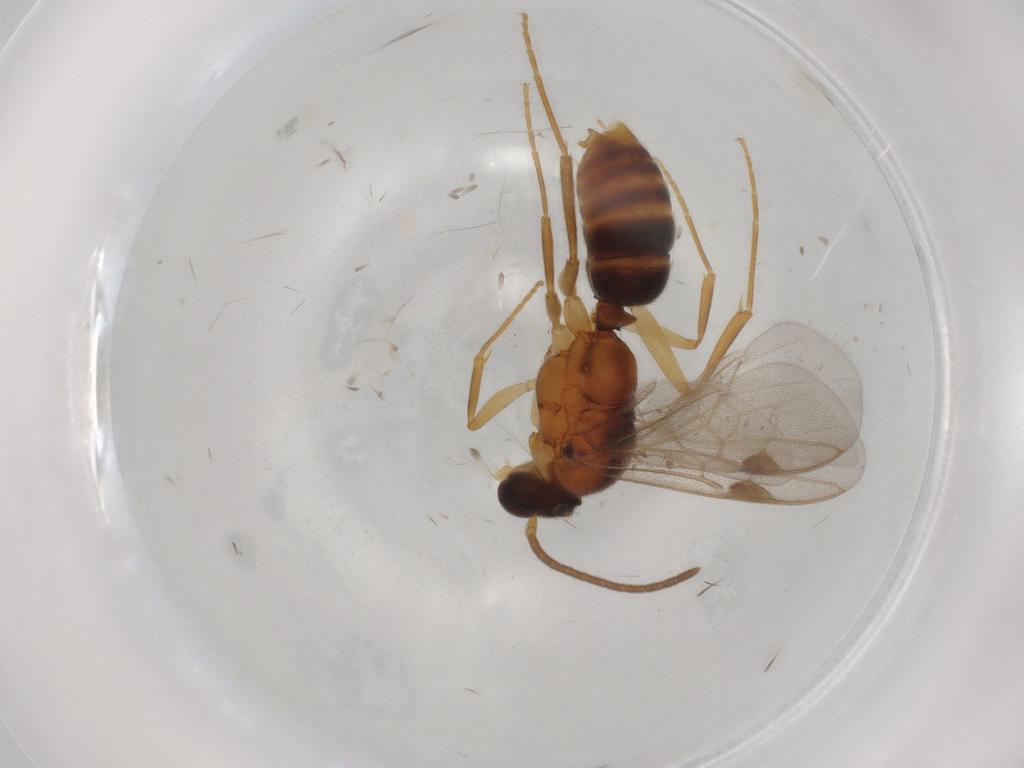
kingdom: Animalia
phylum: Arthropoda
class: Insecta
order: Hymenoptera
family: Formicidae
